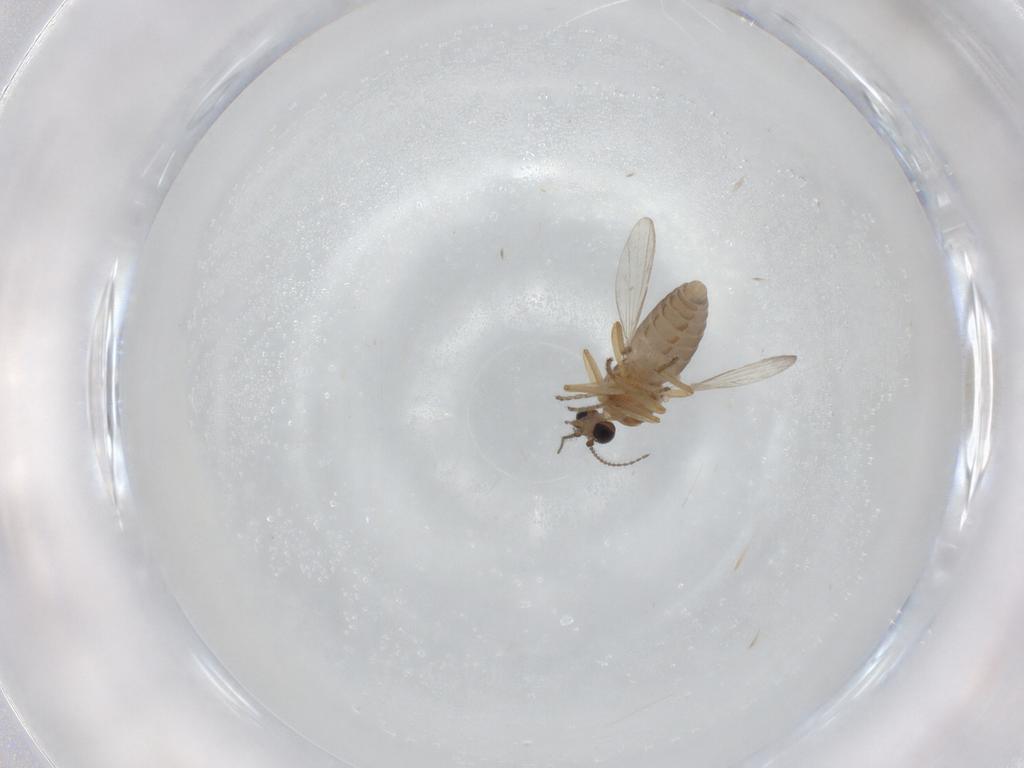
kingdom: Animalia
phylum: Arthropoda
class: Insecta
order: Diptera
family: Ceratopogonidae
